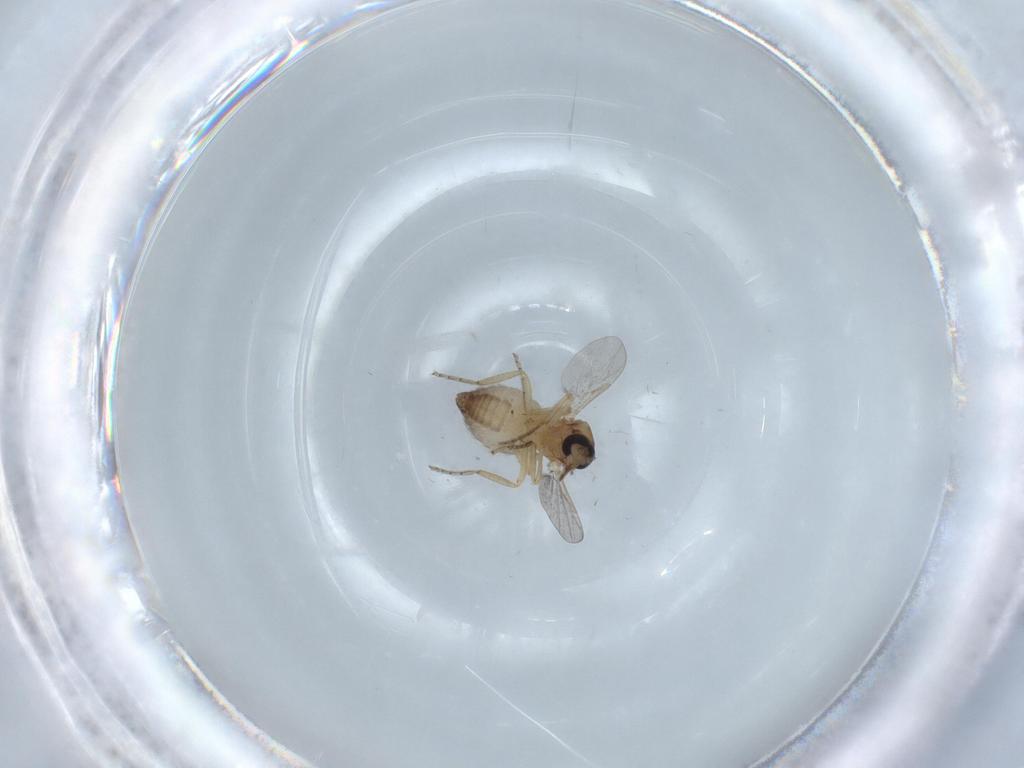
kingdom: Animalia
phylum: Arthropoda
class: Insecta
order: Diptera
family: Ceratopogonidae
